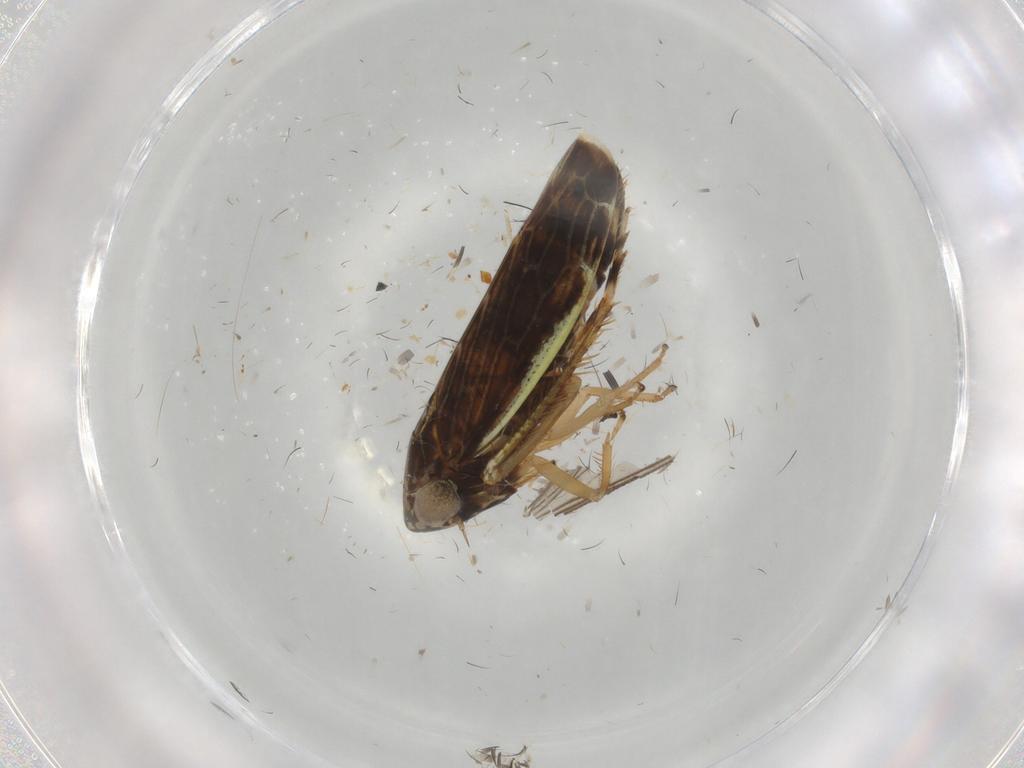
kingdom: Animalia
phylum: Arthropoda
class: Insecta
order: Hemiptera
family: Cicadellidae
